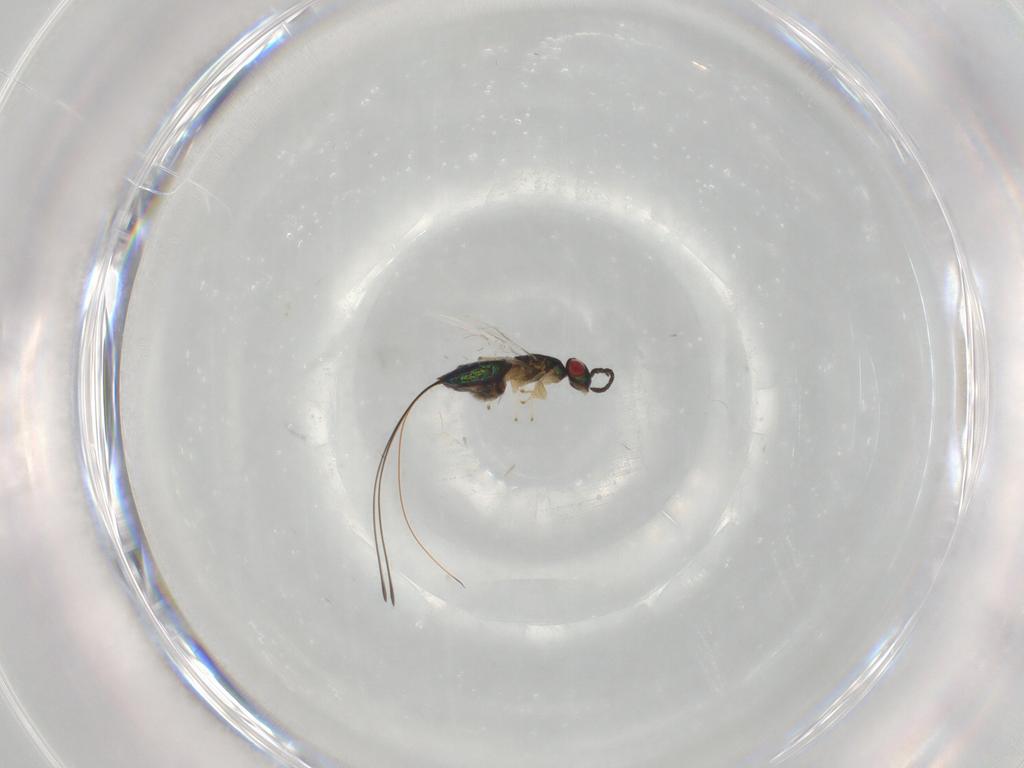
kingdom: Animalia
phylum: Arthropoda
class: Insecta
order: Hymenoptera
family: Pteromalidae
